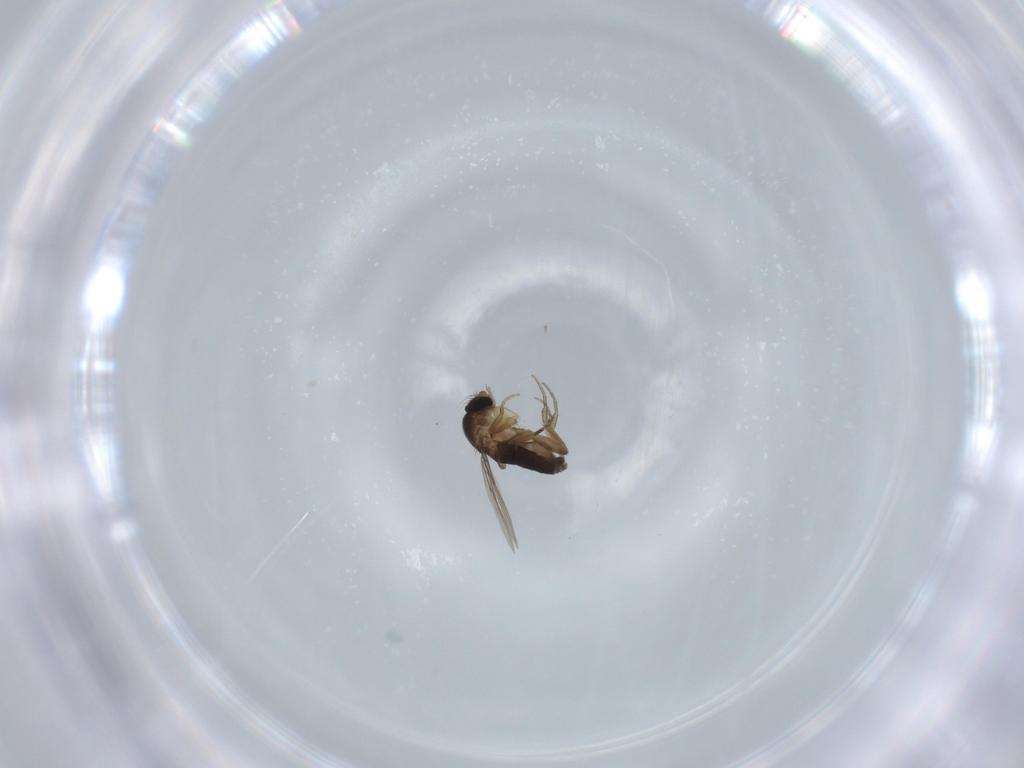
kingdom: Animalia
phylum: Arthropoda
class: Insecta
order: Diptera
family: Phoridae
